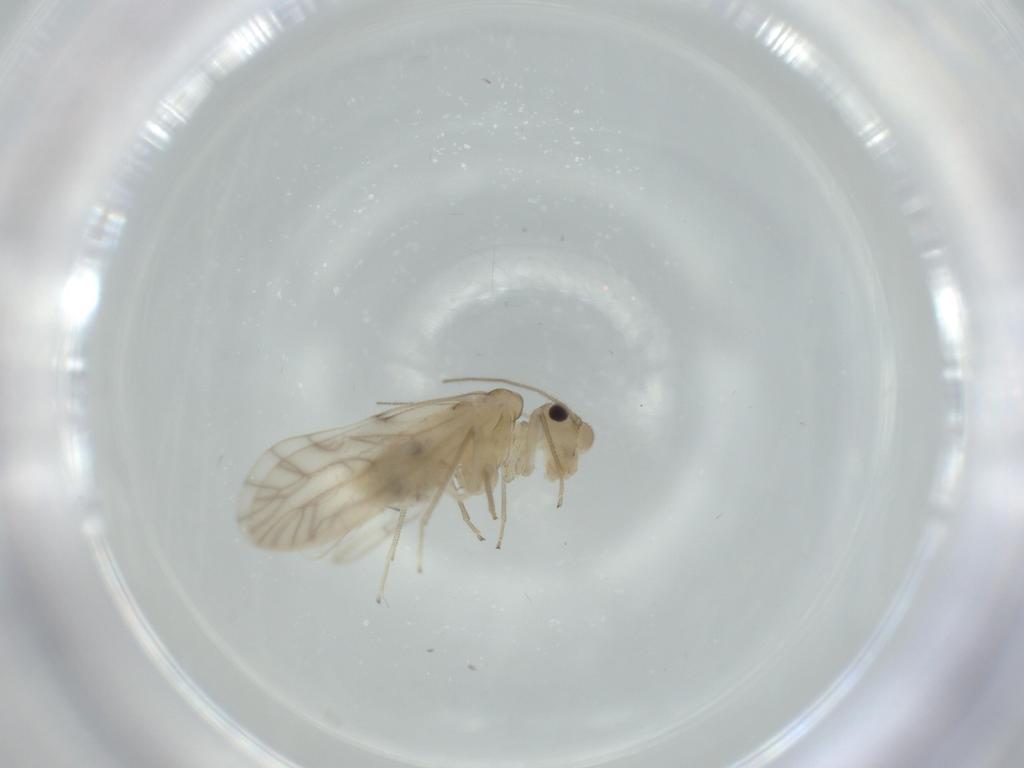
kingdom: Animalia
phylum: Arthropoda
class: Insecta
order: Psocodea
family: Caeciliusidae
